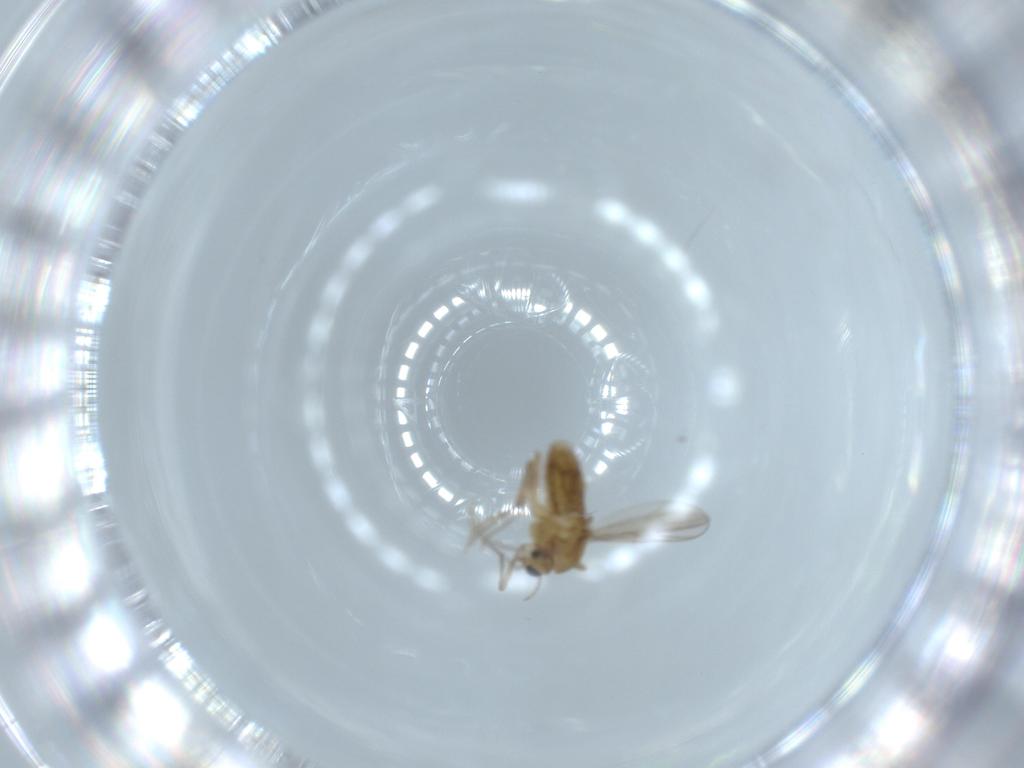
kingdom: Animalia
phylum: Arthropoda
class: Insecta
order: Diptera
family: Chironomidae
